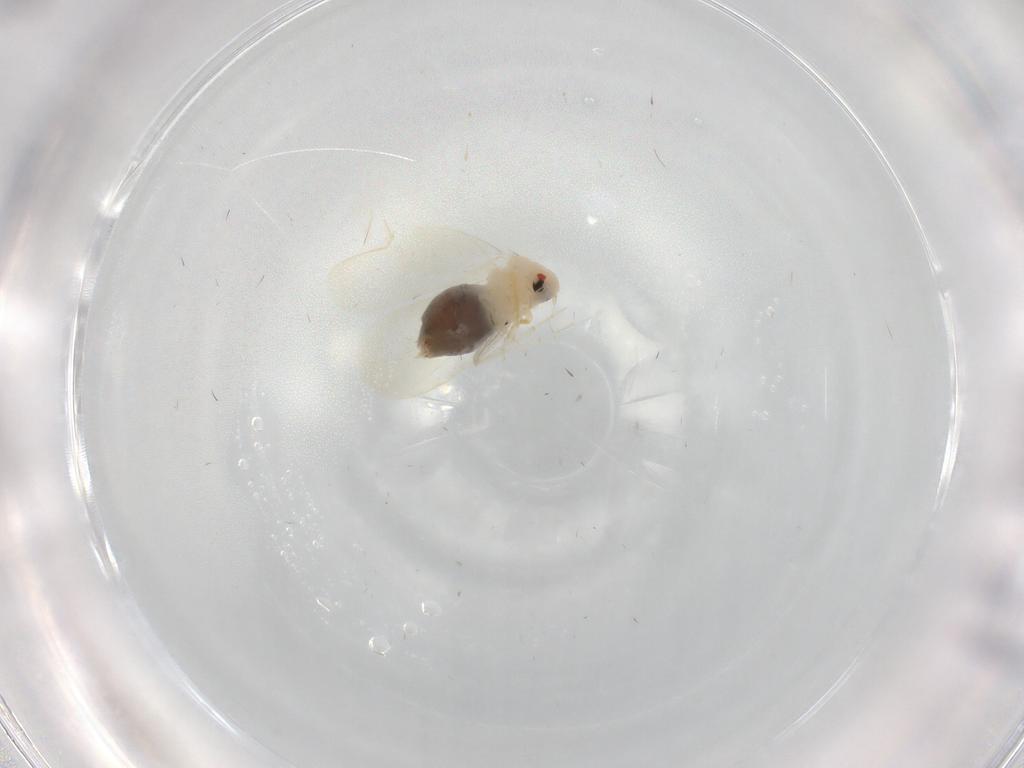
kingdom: Animalia
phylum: Arthropoda
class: Insecta
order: Hemiptera
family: Aleyrodidae
